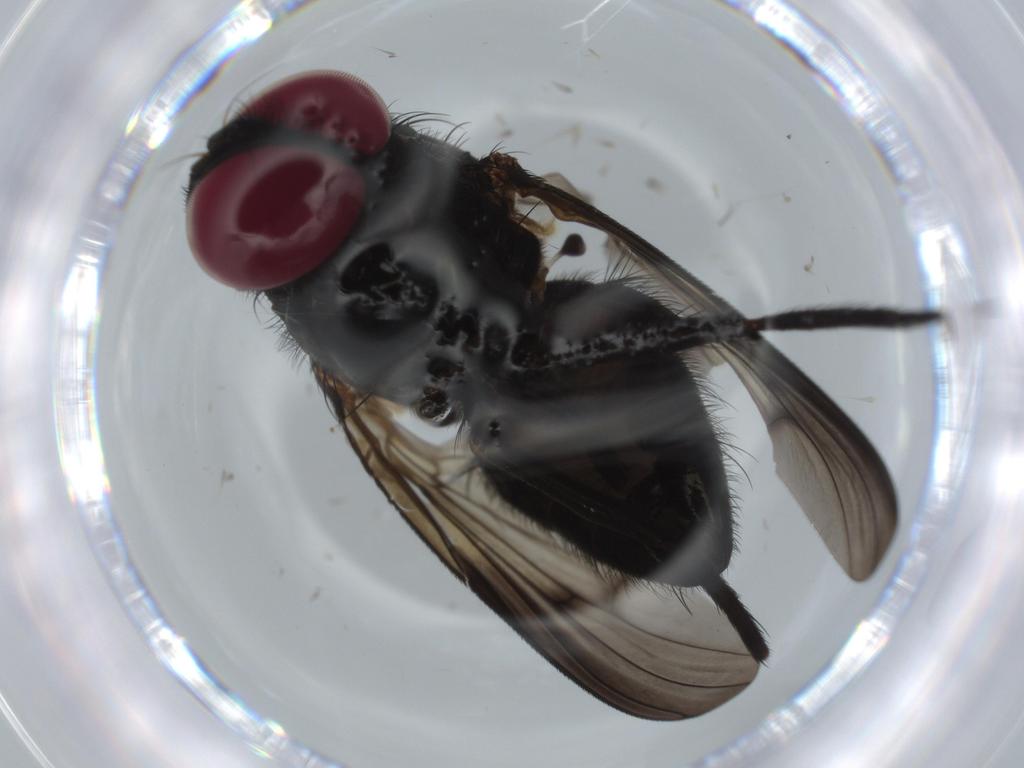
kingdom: Animalia
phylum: Arthropoda
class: Insecta
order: Diptera
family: Fannia
